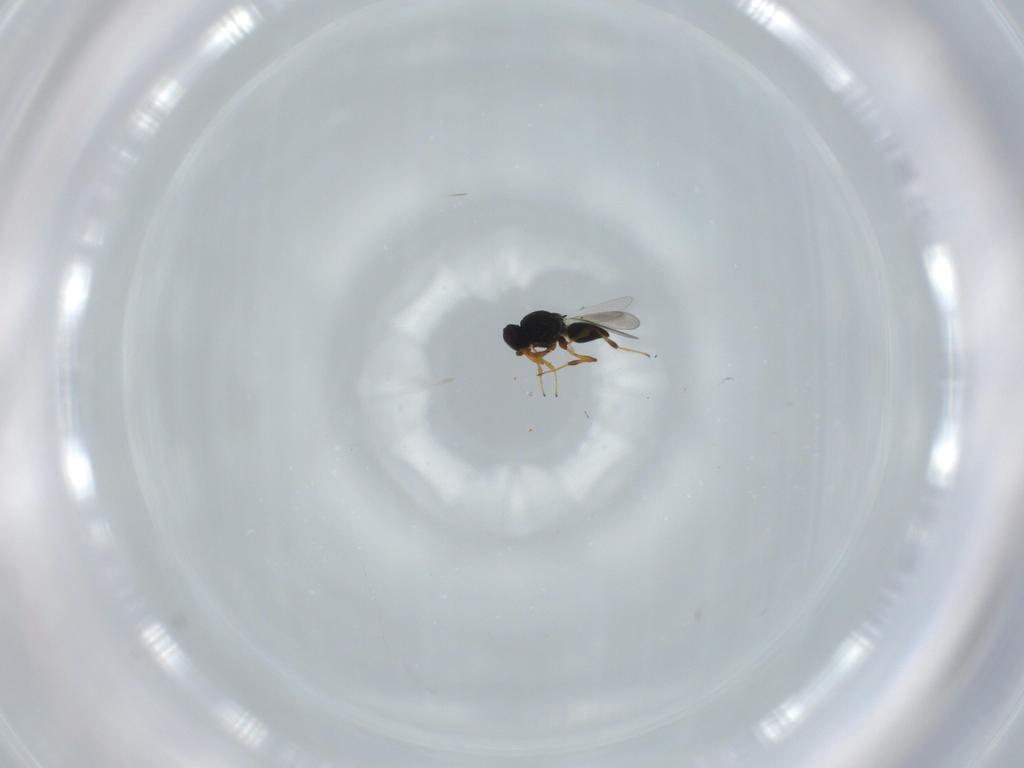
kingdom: Animalia
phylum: Arthropoda
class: Insecta
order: Hymenoptera
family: Platygastridae
